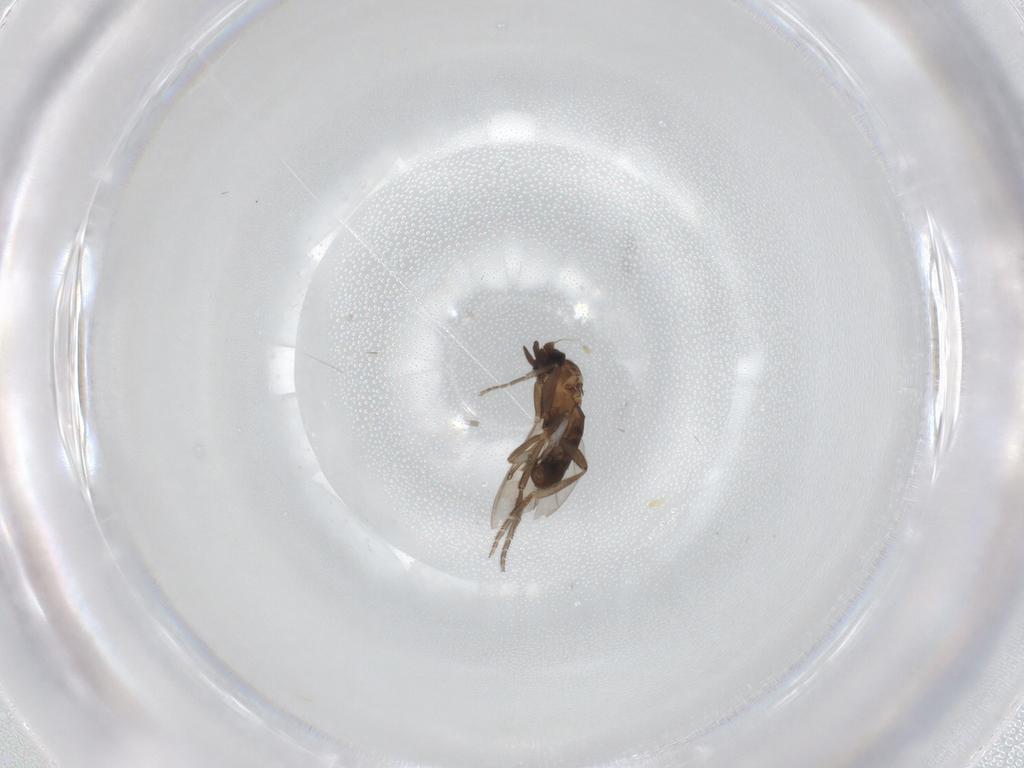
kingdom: Animalia
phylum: Arthropoda
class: Insecta
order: Diptera
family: Phoridae
